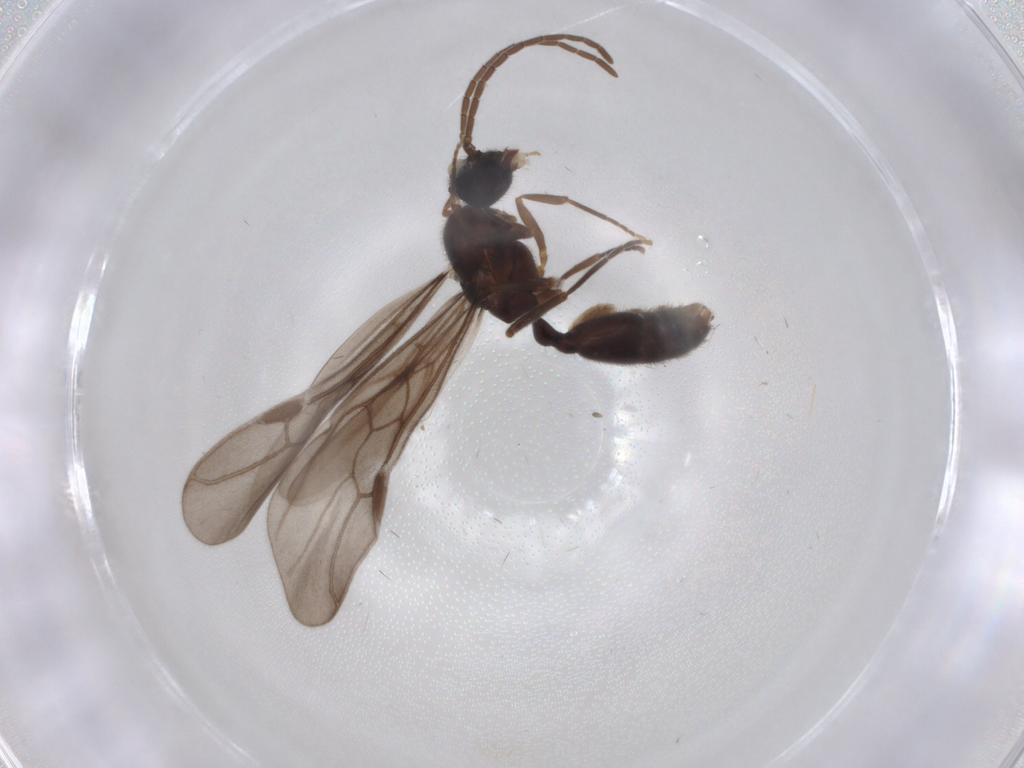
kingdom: Animalia
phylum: Arthropoda
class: Insecta
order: Hymenoptera
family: Formicidae
